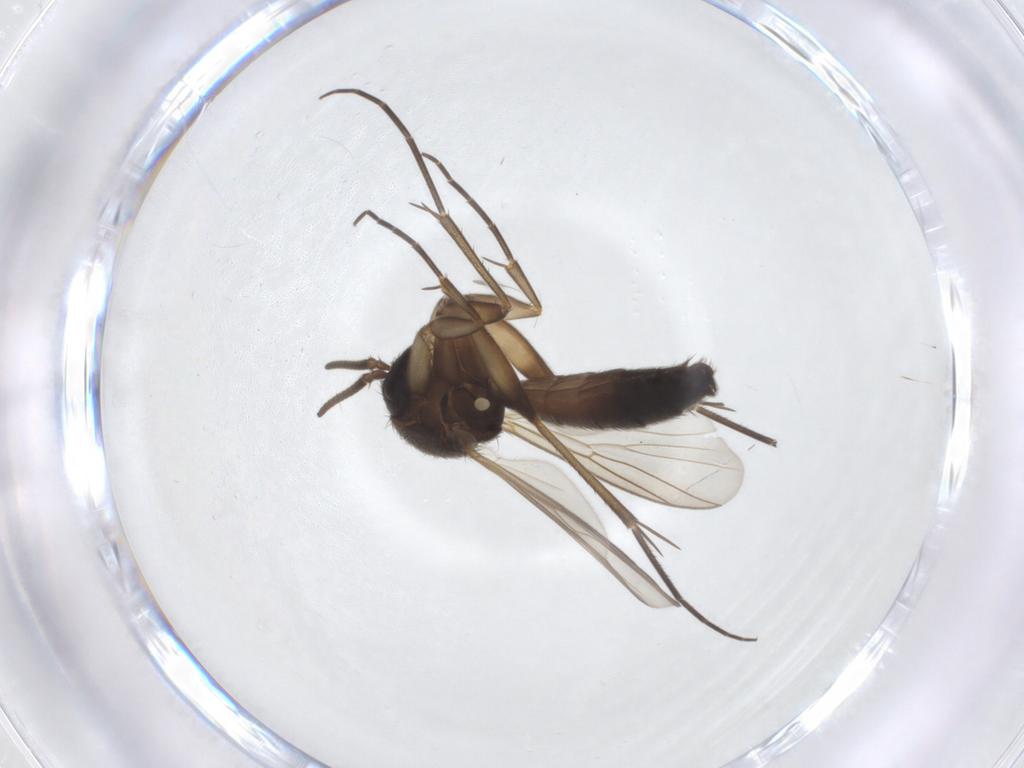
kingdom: Animalia
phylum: Arthropoda
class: Insecta
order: Diptera
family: Mycetophilidae
